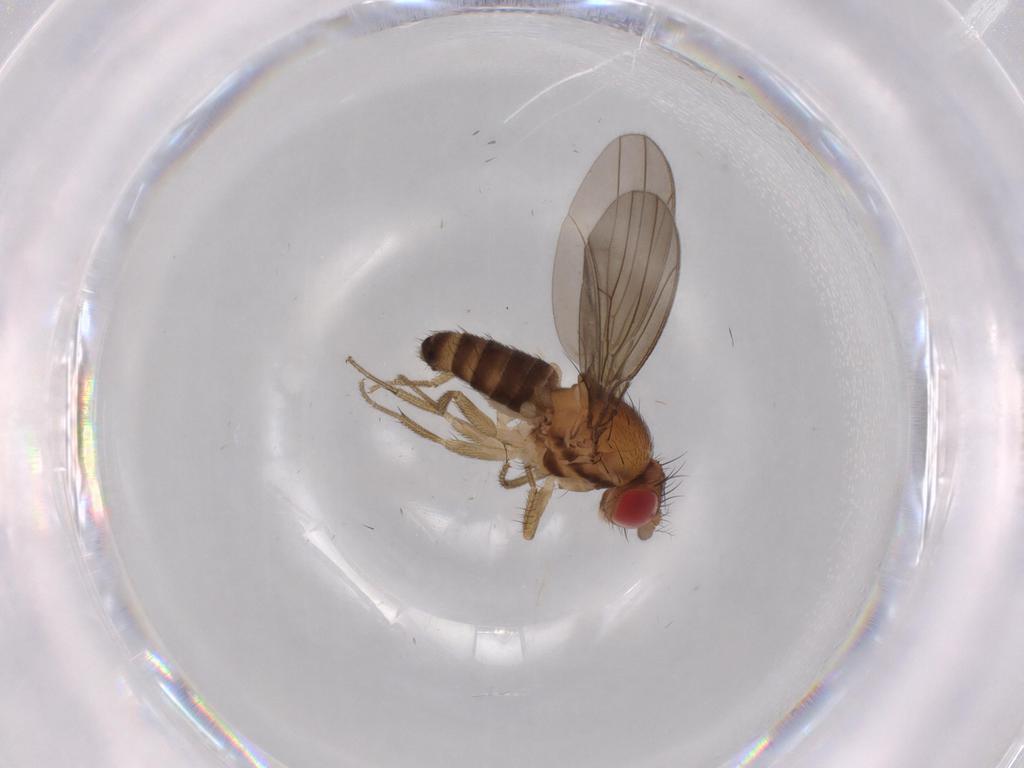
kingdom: Animalia
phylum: Arthropoda
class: Insecta
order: Diptera
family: Drosophilidae
